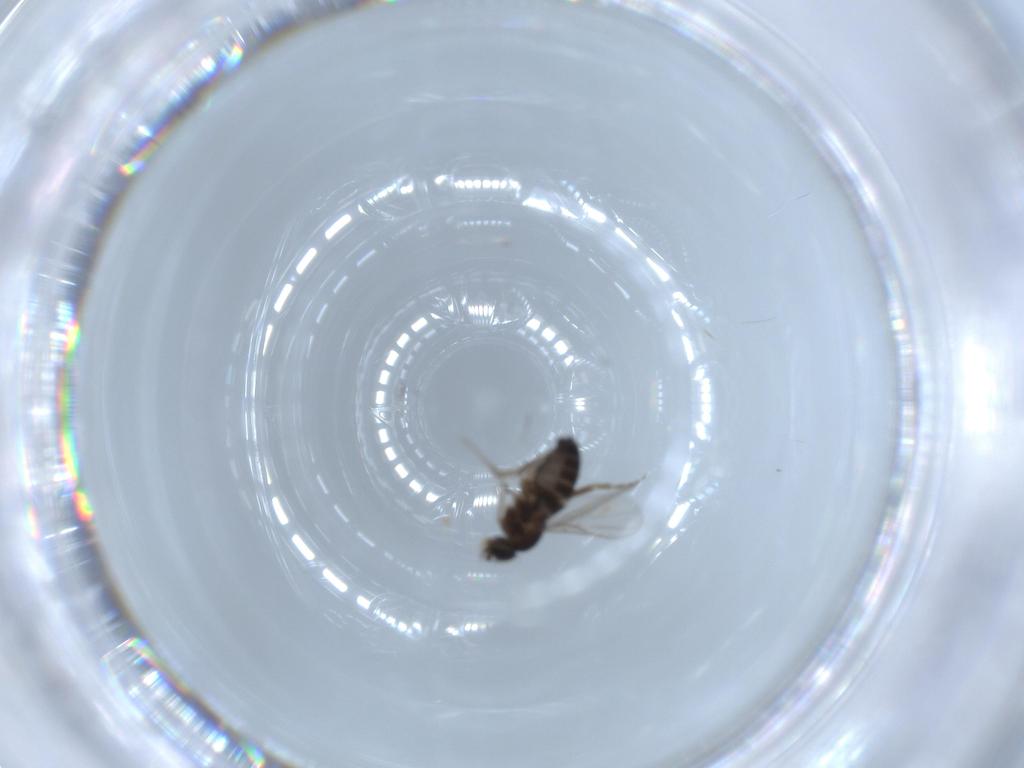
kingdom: Animalia
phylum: Arthropoda
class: Insecta
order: Diptera
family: Phoridae
